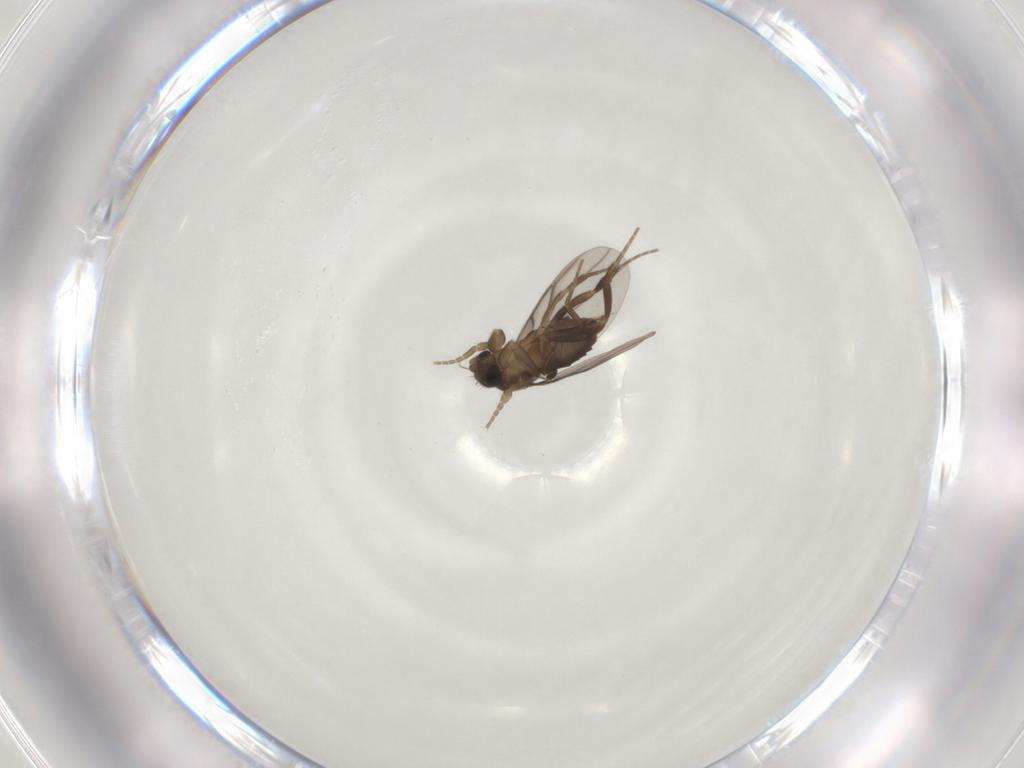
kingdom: Animalia
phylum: Arthropoda
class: Insecta
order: Diptera
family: Phoridae
